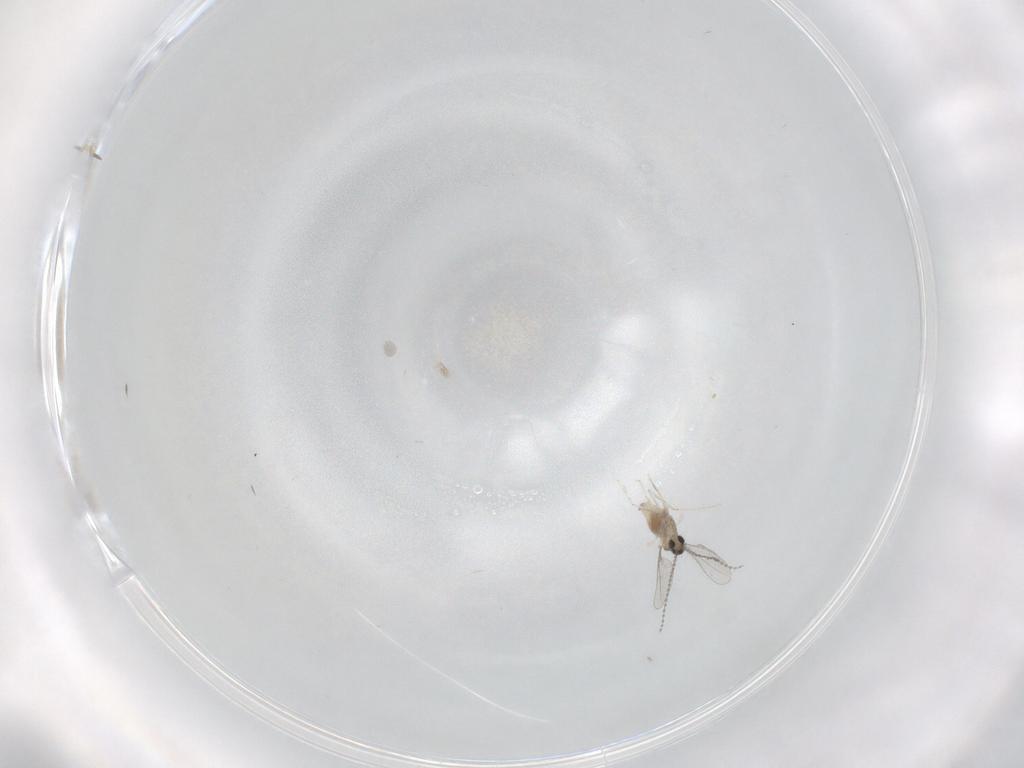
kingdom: Animalia
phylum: Arthropoda
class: Insecta
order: Diptera
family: Cecidomyiidae
